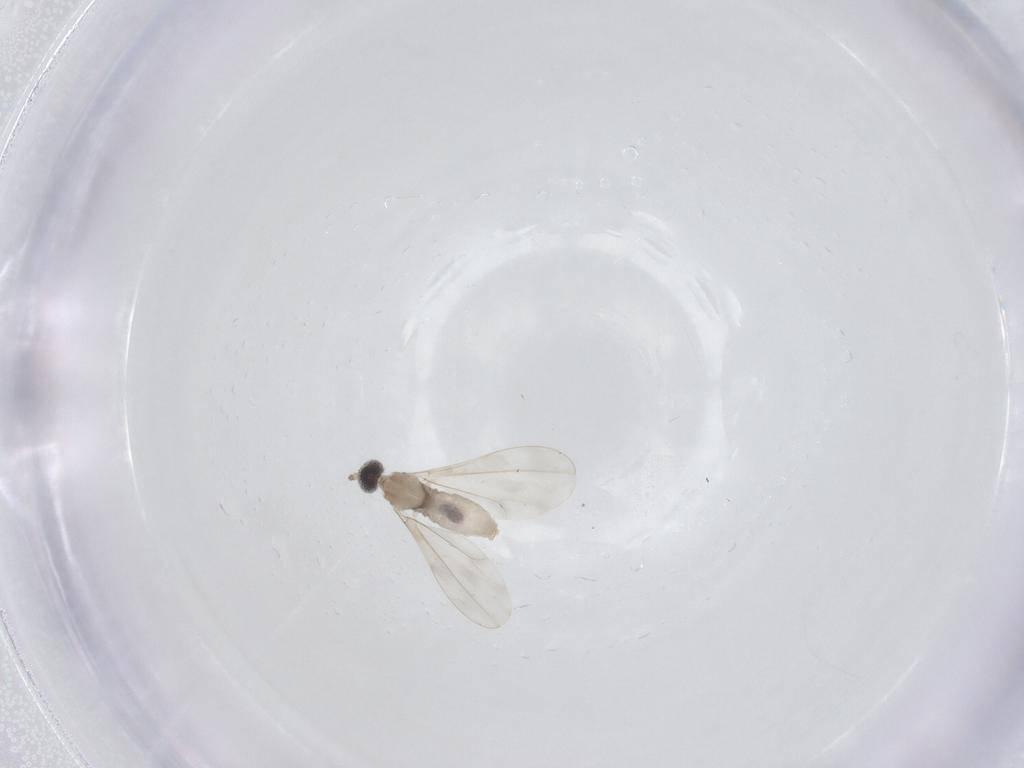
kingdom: Animalia
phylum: Arthropoda
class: Insecta
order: Diptera
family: Cecidomyiidae
